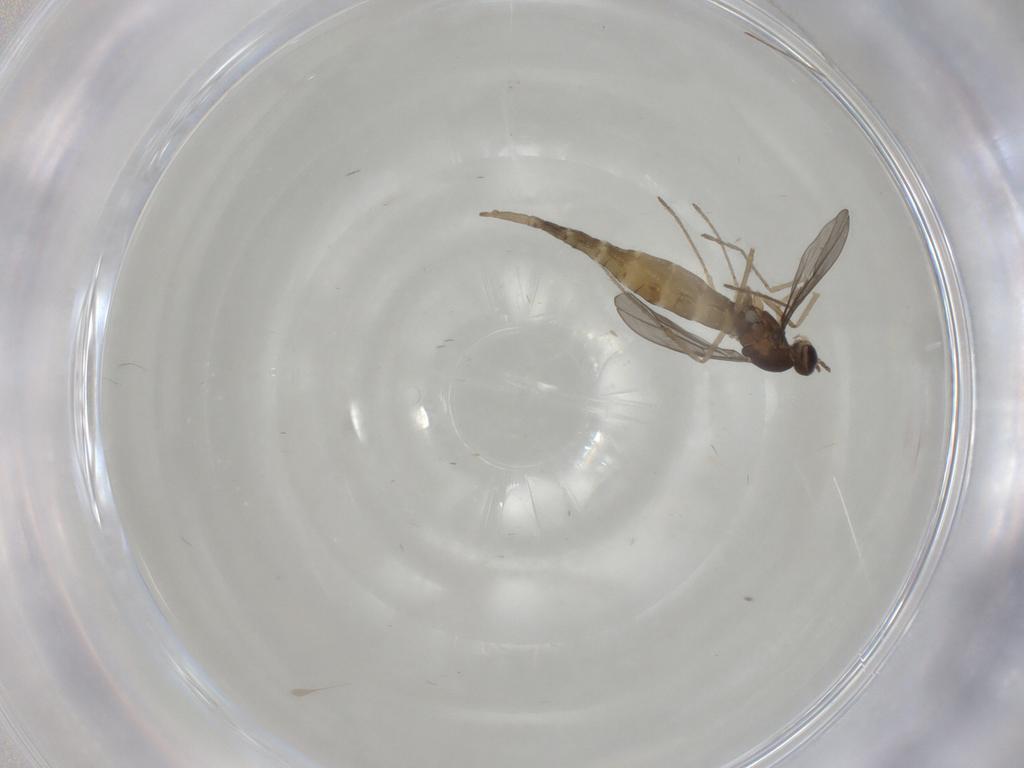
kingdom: Animalia
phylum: Arthropoda
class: Insecta
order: Diptera
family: Cecidomyiidae
